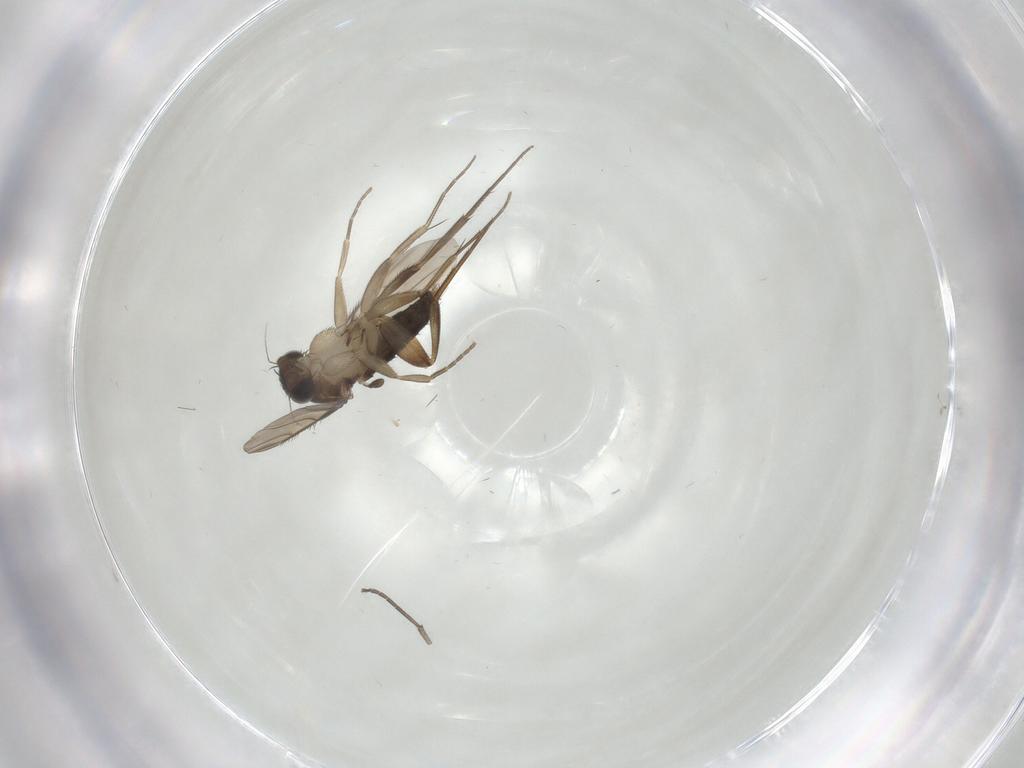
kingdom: Animalia
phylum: Arthropoda
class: Insecta
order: Diptera
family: Phoridae
